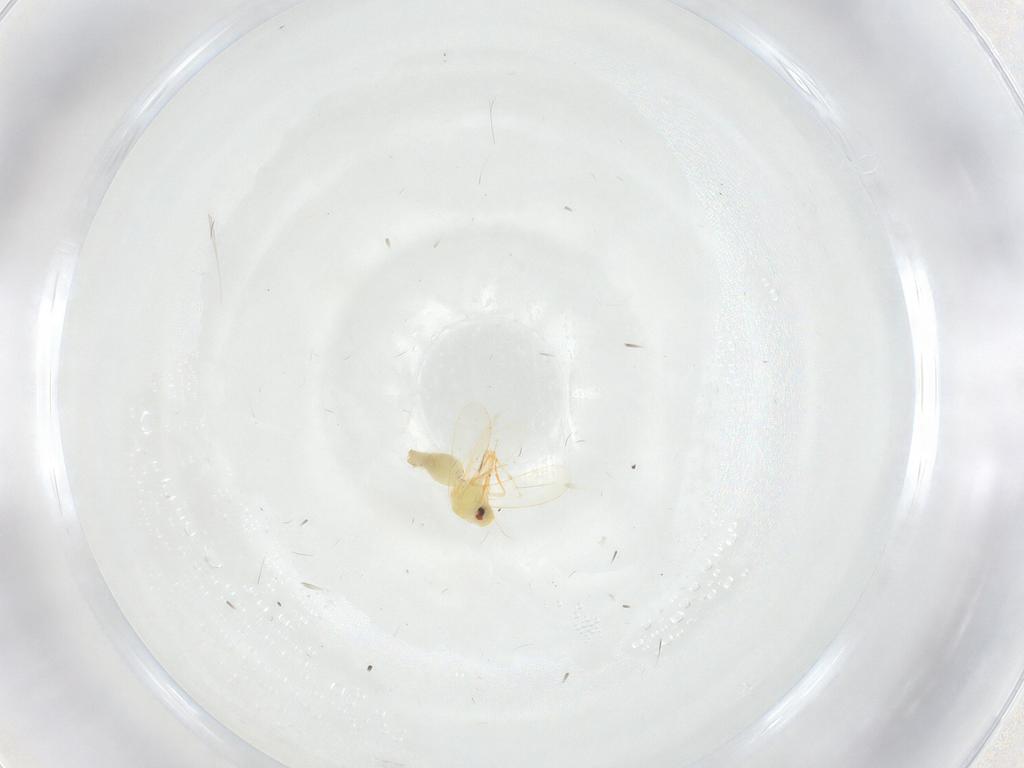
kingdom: Animalia
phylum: Arthropoda
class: Insecta
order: Hemiptera
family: Aleyrodidae
